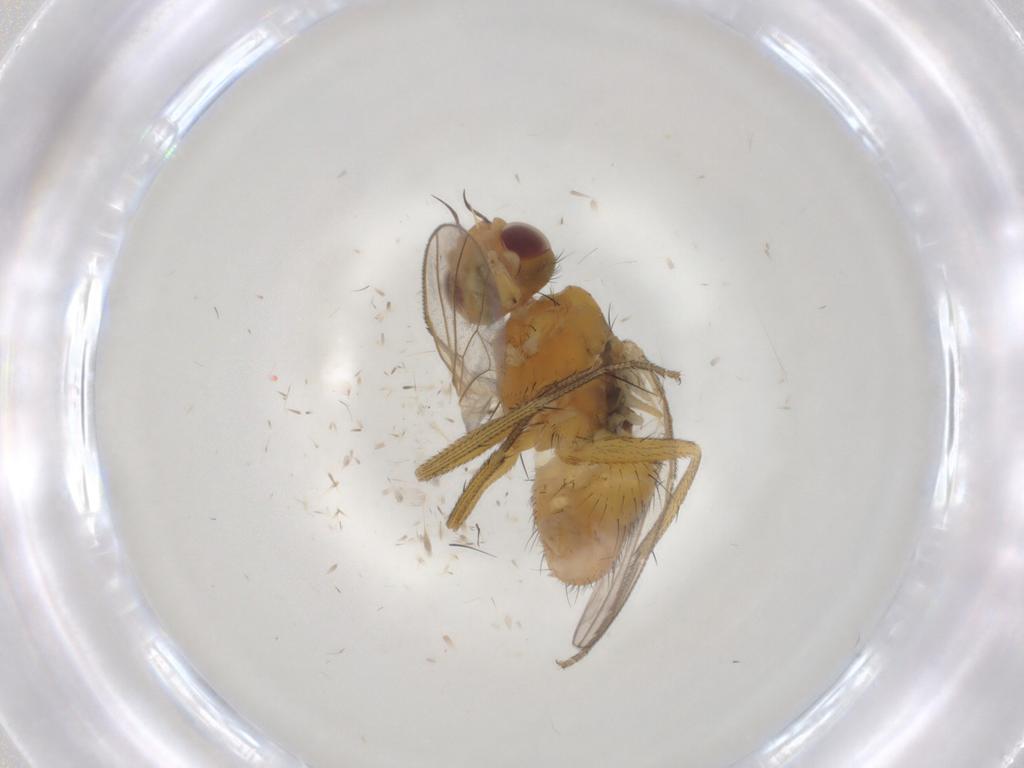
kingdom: Animalia
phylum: Arthropoda
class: Insecta
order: Diptera
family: Muscidae
